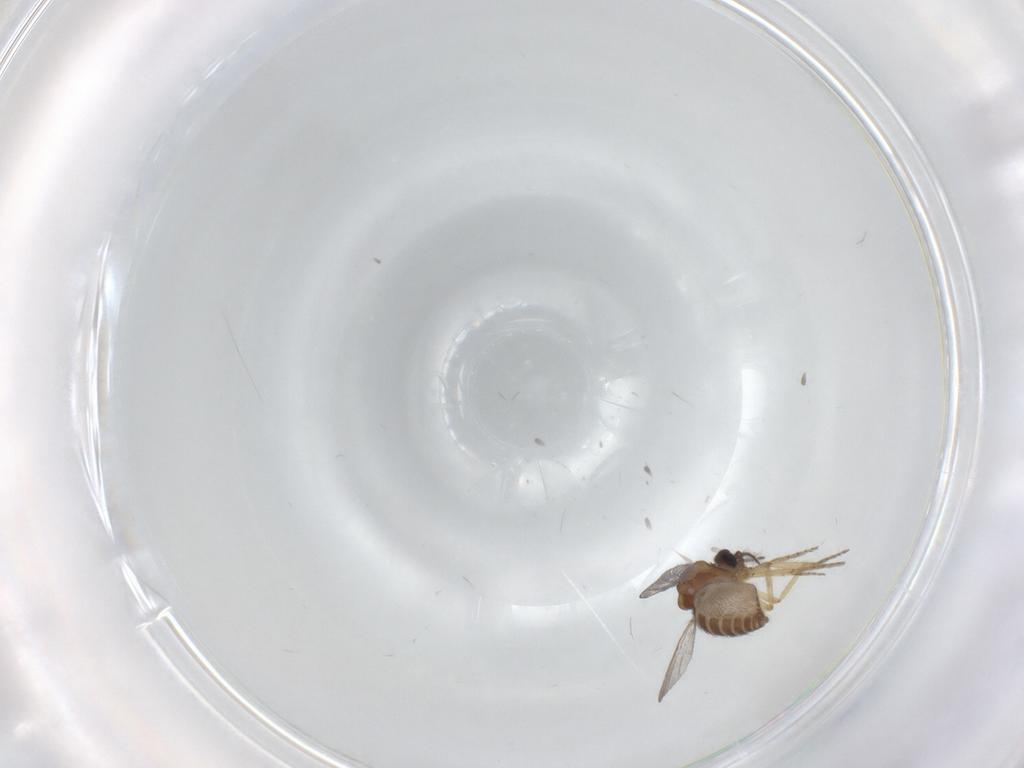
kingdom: Animalia
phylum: Arthropoda
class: Insecta
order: Diptera
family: Ceratopogonidae
